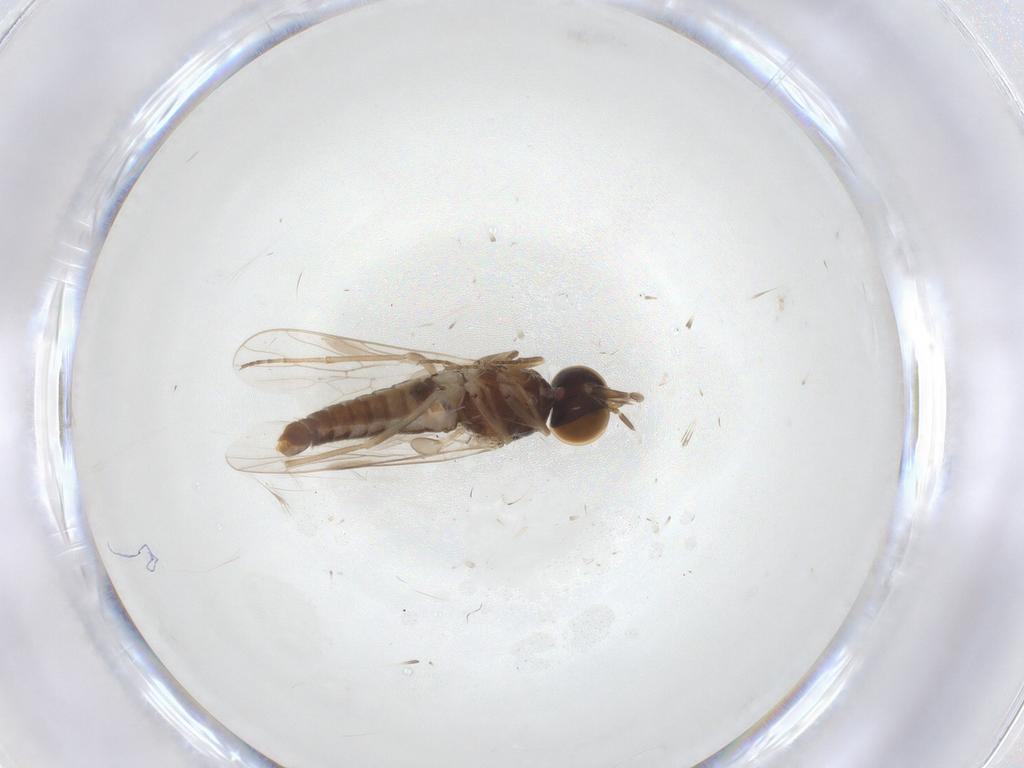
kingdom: Animalia
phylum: Arthropoda
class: Insecta
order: Diptera
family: Scenopinidae
